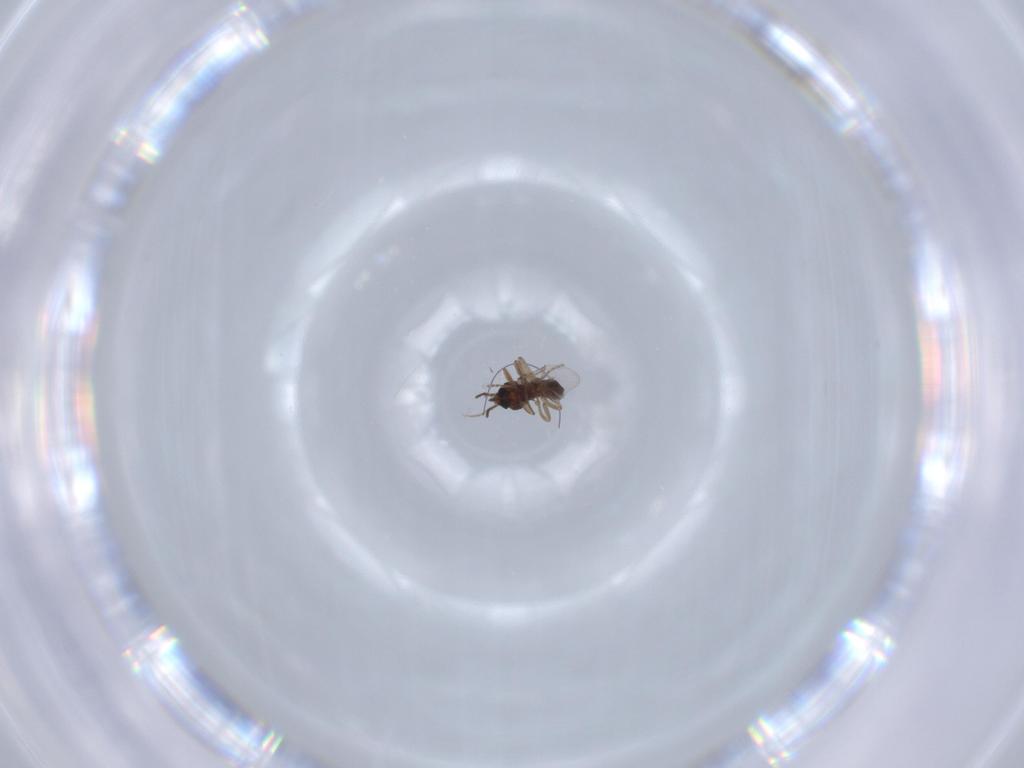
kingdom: Animalia
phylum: Arthropoda
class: Insecta
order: Diptera
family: Ceratopogonidae
